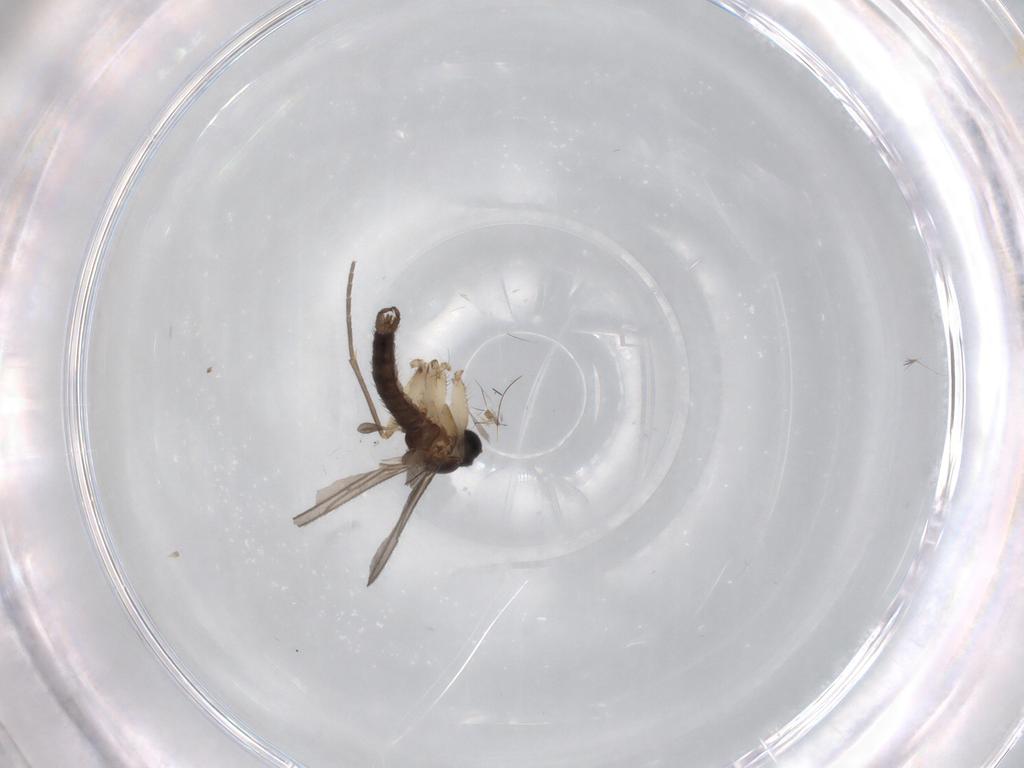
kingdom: Animalia
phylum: Arthropoda
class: Insecta
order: Diptera
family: Sciaridae
